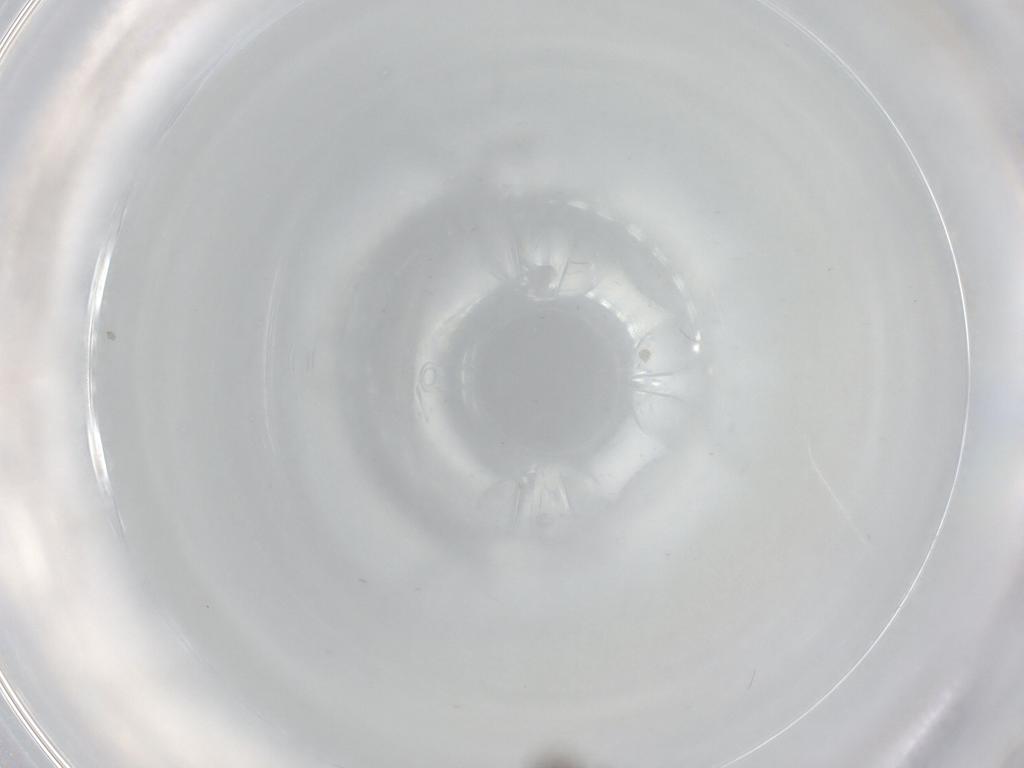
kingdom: Animalia
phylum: Arthropoda
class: Insecta
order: Diptera
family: Psychodidae
